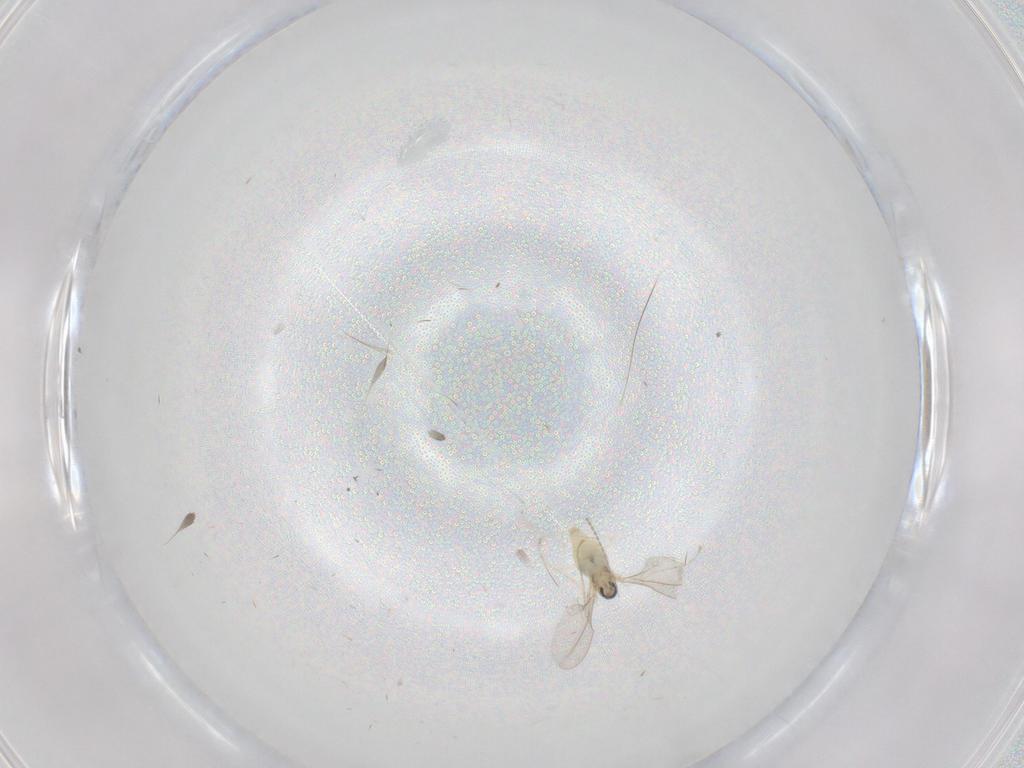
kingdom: Animalia
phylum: Arthropoda
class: Insecta
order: Diptera
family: Cecidomyiidae
